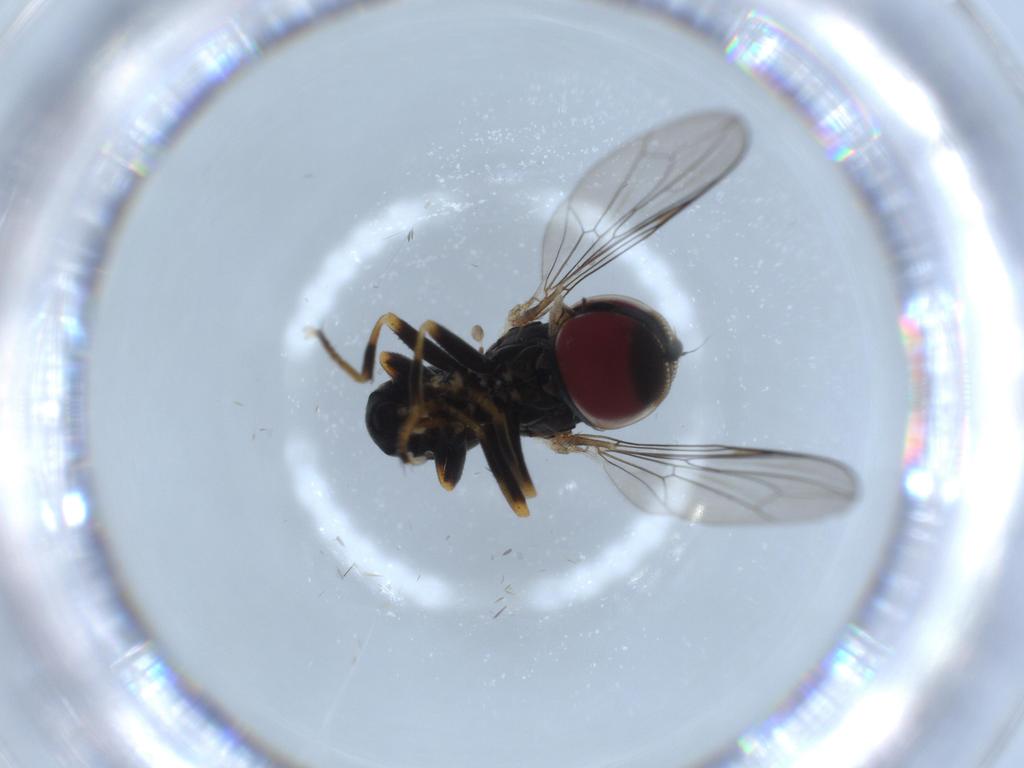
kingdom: Animalia
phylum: Arthropoda
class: Insecta
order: Diptera
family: Pipunculidae
